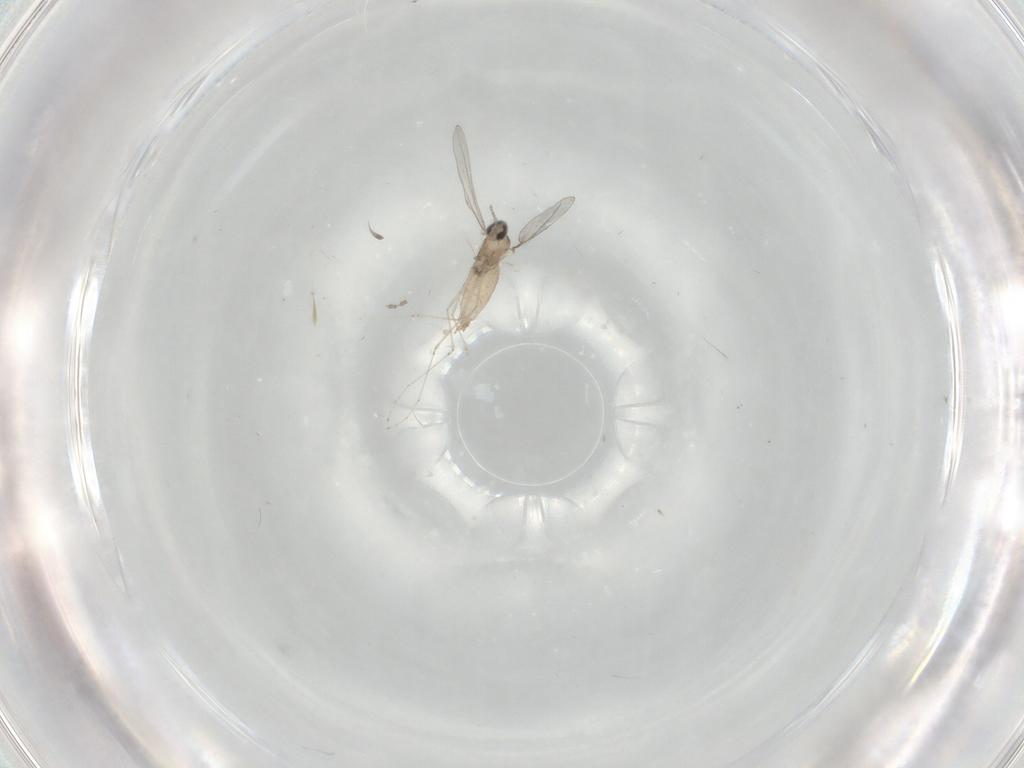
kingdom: Animalia
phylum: Arthropoda
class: Insecta
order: Diptera
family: Cecidomyiidae
